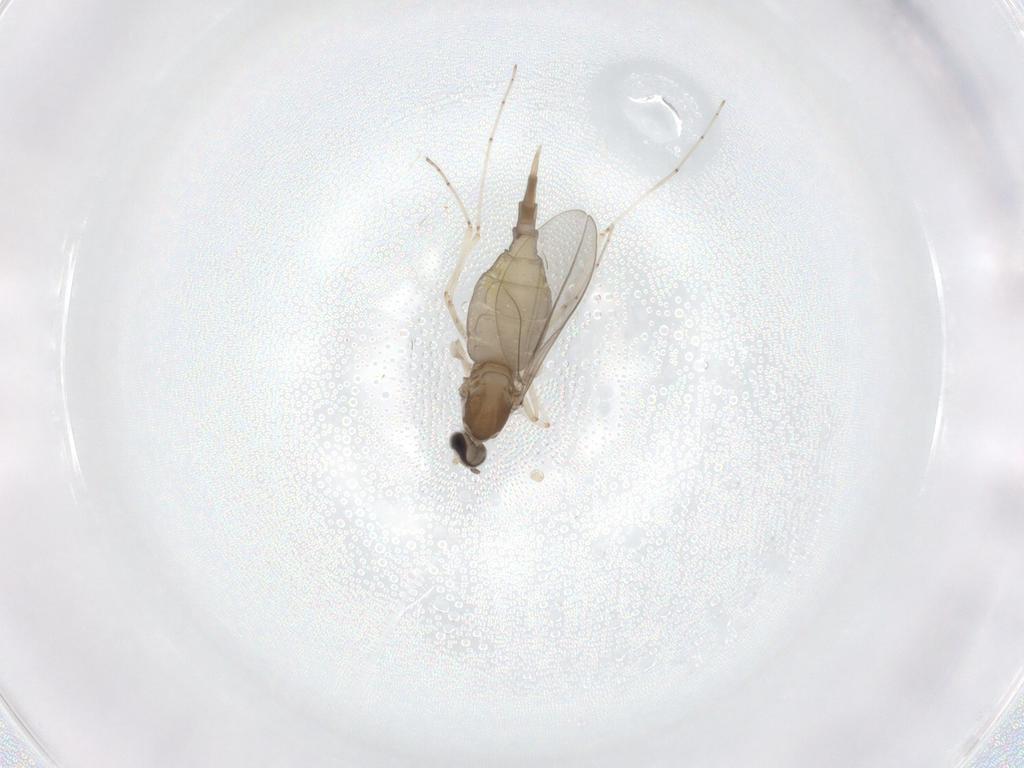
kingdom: Animalia
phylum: Arthropoda
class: Insecta
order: Diptera
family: Cecidomyiidae
